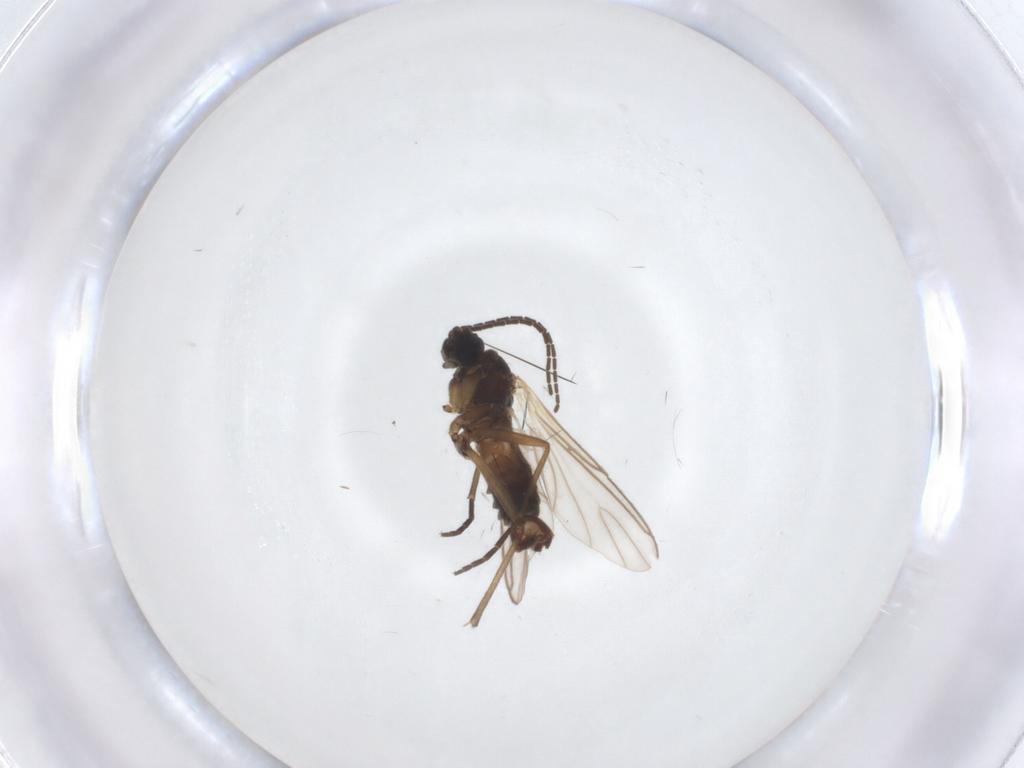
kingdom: Animalia
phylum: Arthropoda
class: Insecta
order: Diptera
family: Sciaridae
